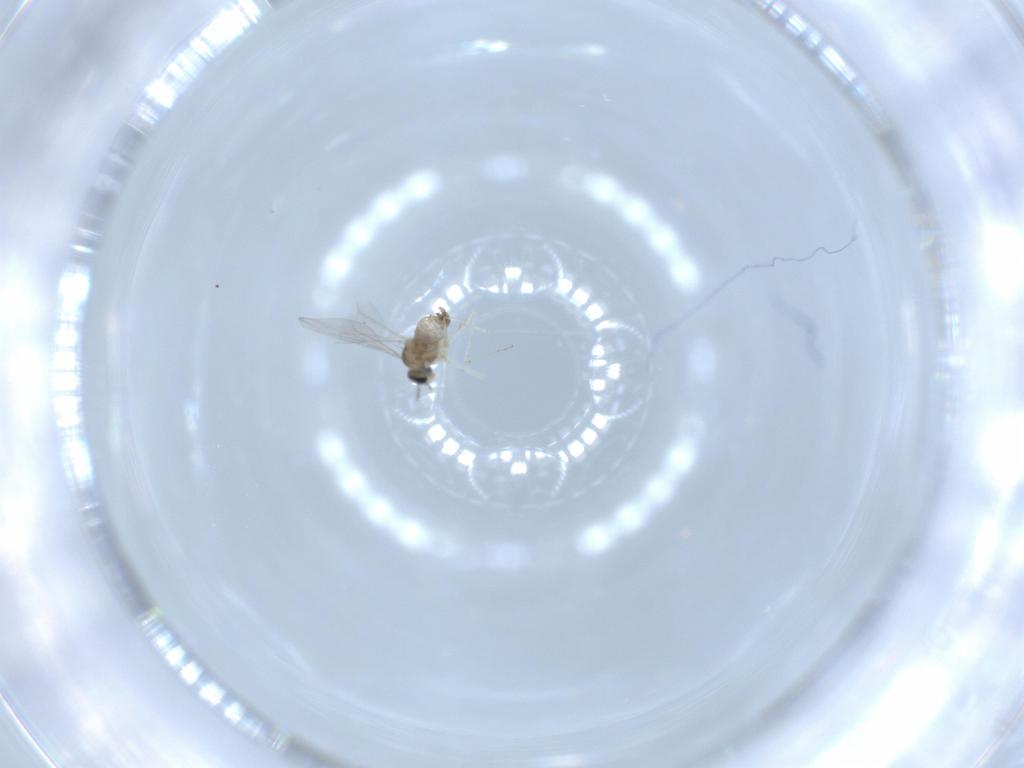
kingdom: Animalia
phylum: Arthropoda
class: Insecta
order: Diptera
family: Cecidomyiidae
